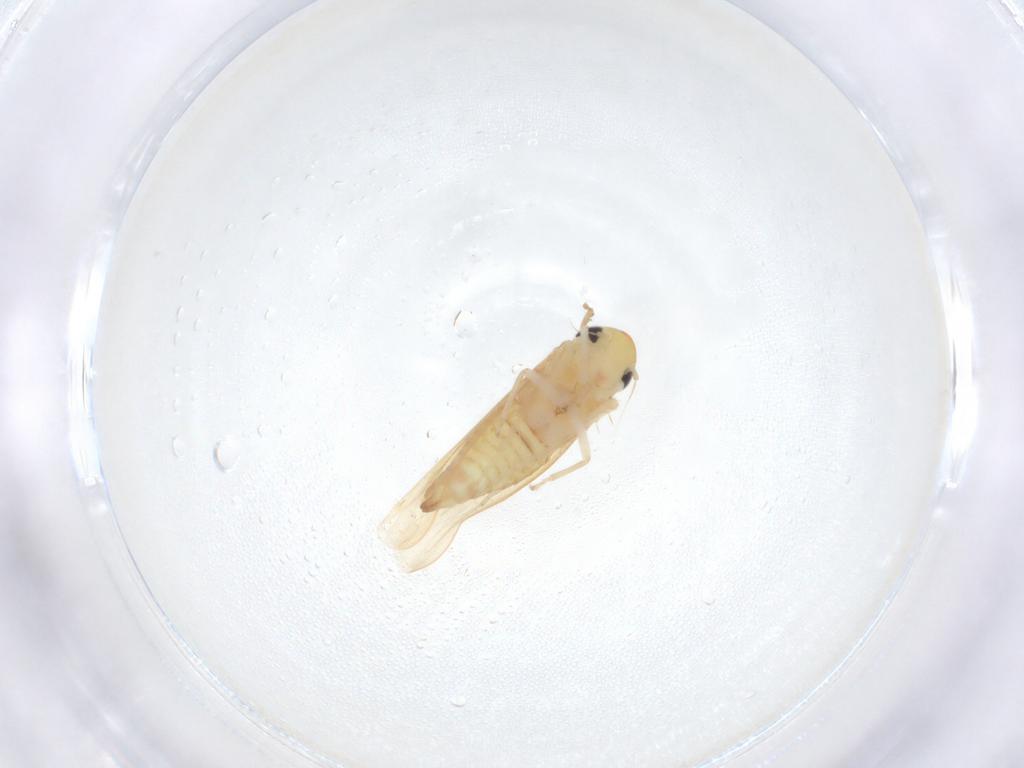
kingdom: Animalia
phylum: Arthropoda
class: Insecta
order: Hemiptera
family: Cicadellidae
